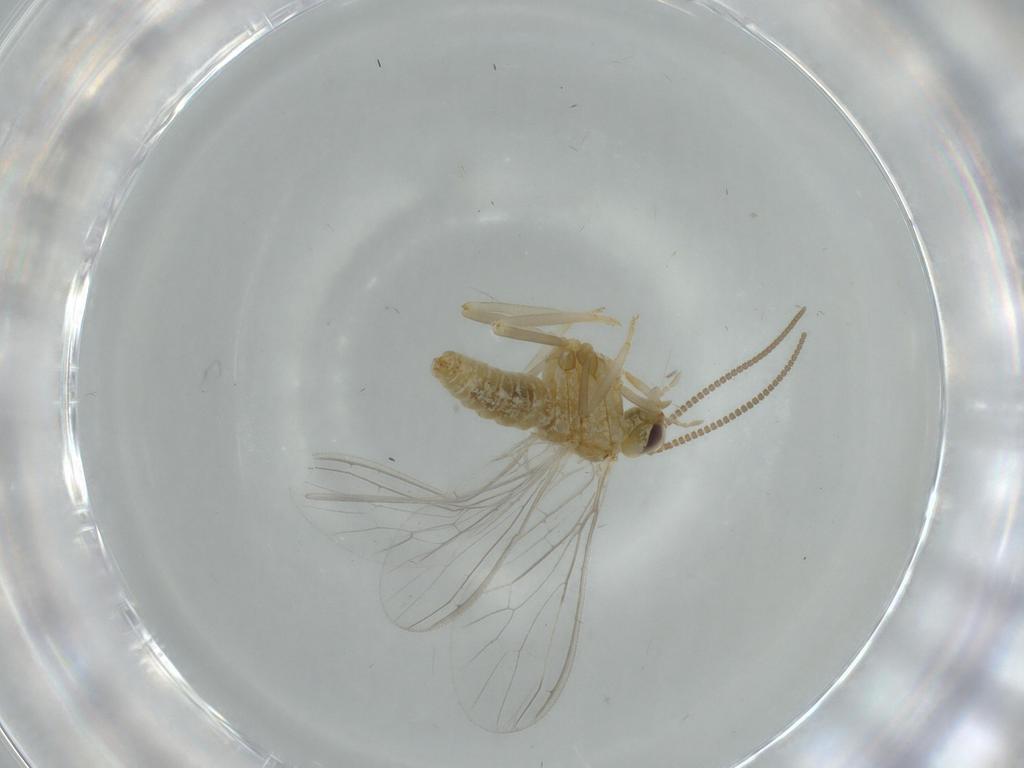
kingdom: Animalia
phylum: Arthropoda
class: Insecta
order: Neuroptera
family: Coniopterygidae
